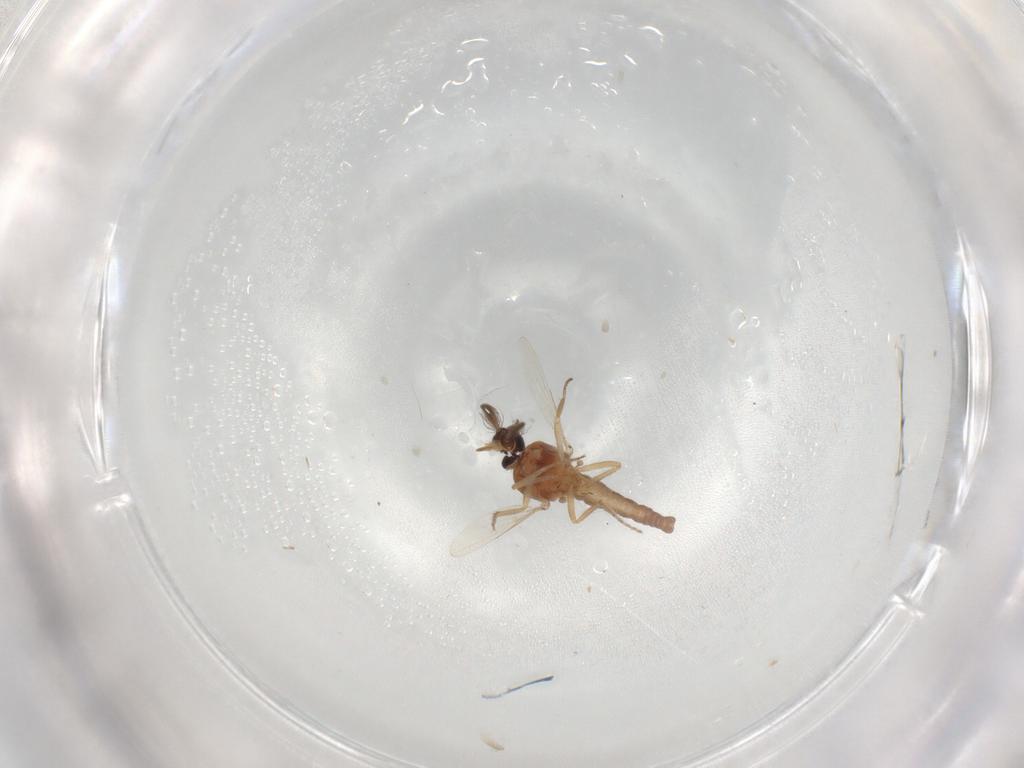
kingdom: Animalia
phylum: Arthropoda
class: Insecta
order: Diptera
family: Ceratopogonidae
